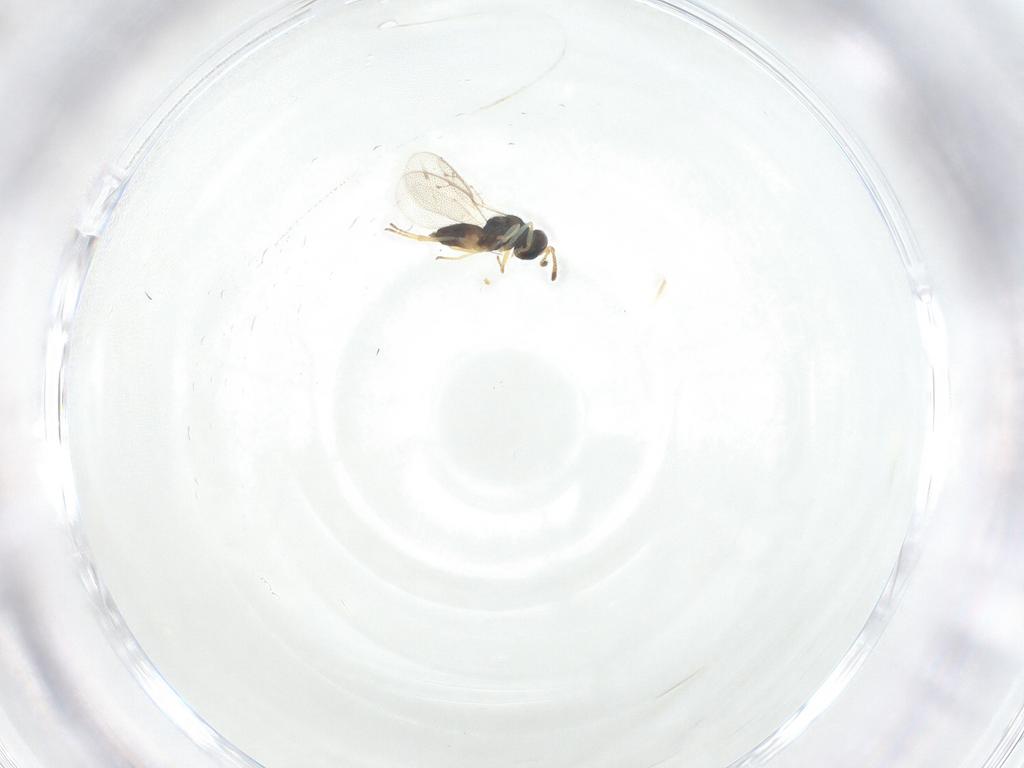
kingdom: Animalia
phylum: Arthropoda
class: Insecta
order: Hymenoptera
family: Pteromalidae
